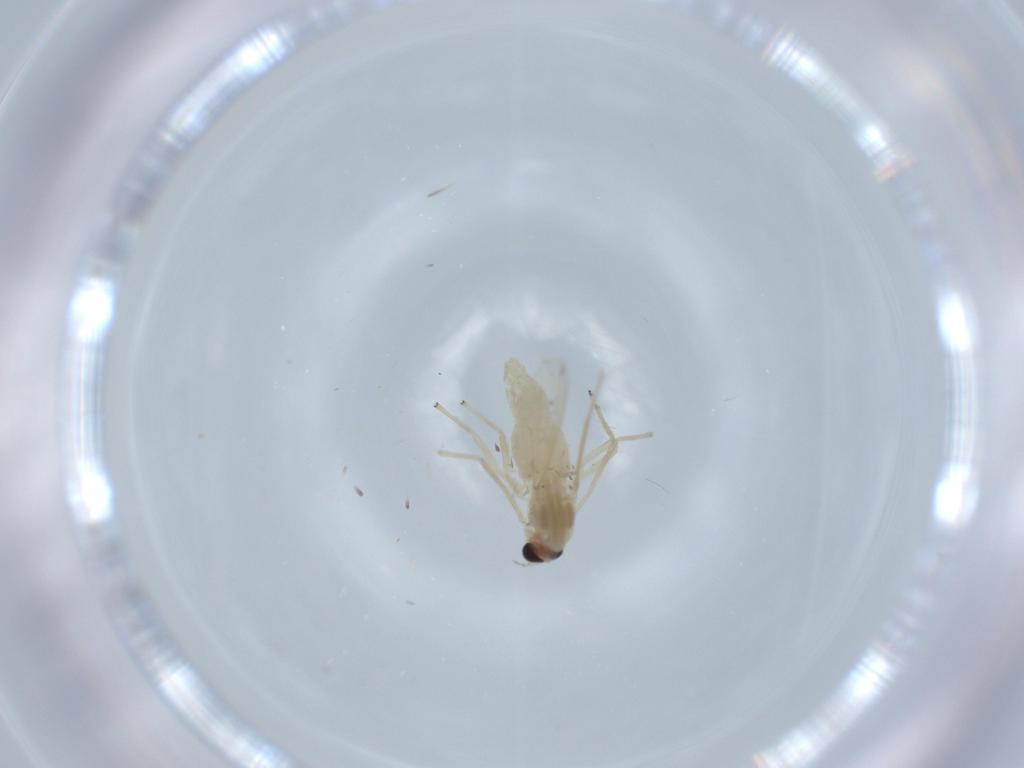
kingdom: Animalia
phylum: Arthropoda
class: Insecta
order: Diptera
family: Chironomidae
